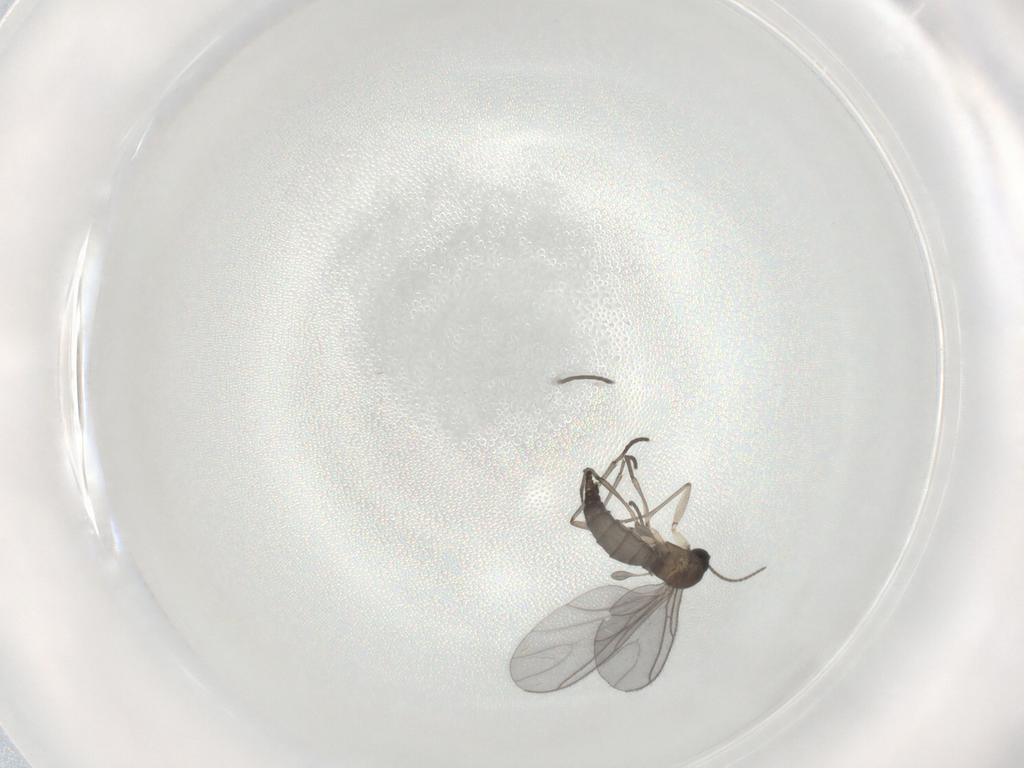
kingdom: Animalia
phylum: Arthropoda
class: Insecta
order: Diptera
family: Sciaridae
